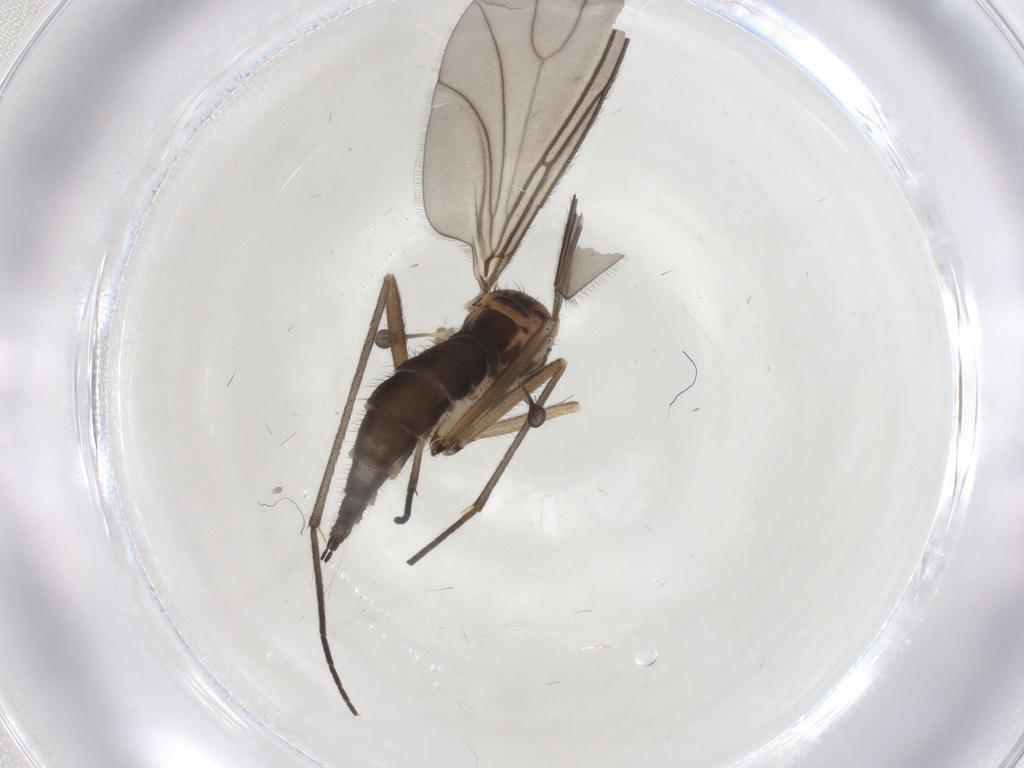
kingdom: Animalia
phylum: Arthropoda
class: Insecta
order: Diptera
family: Sciaridae
